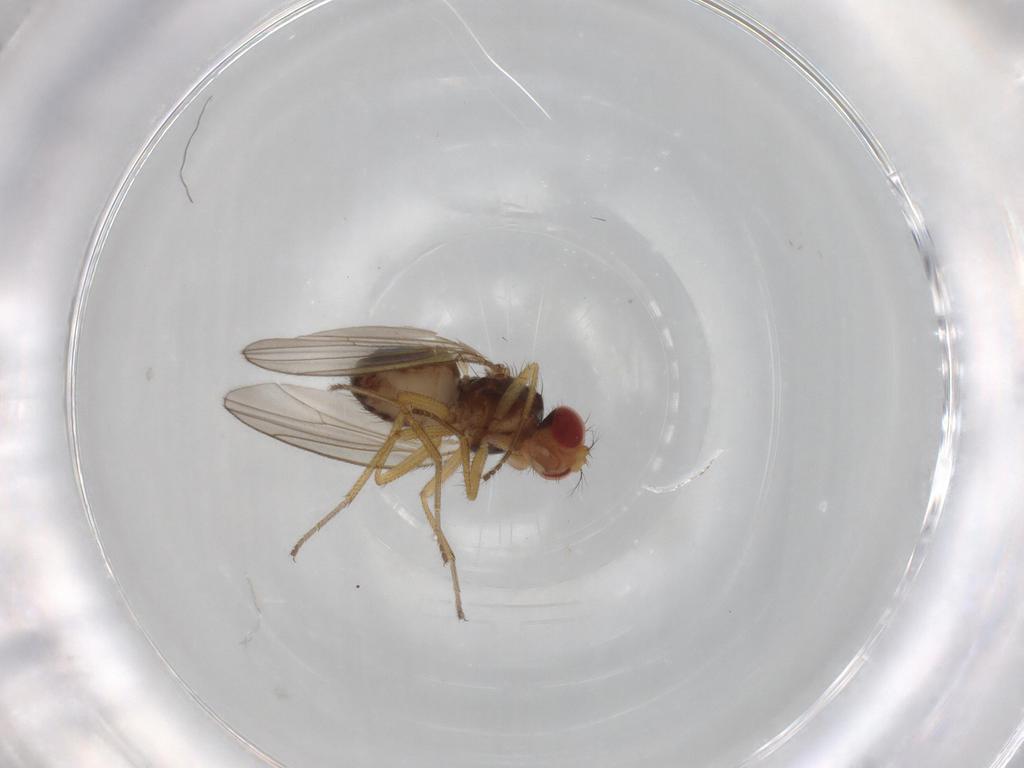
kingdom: Animalia
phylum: Arthropoda
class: Insecta
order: Diptera
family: Drosophilidae
